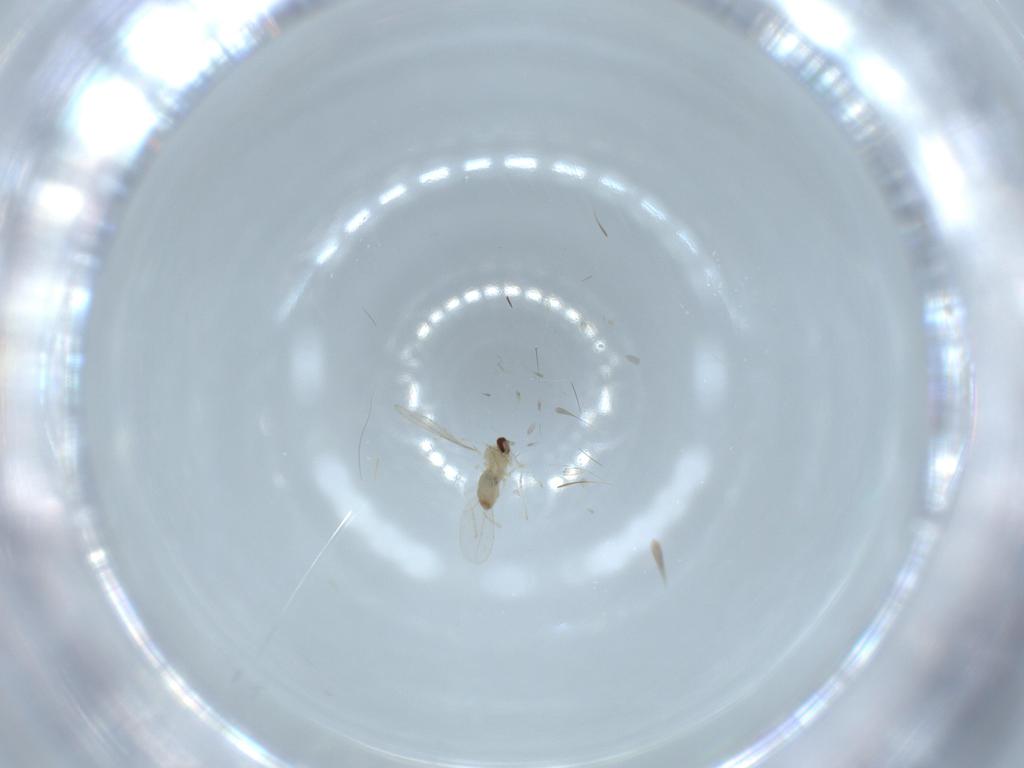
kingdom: Animalia
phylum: Arthropoda
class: Insecta
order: Diptera
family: Cecidomyiidae
